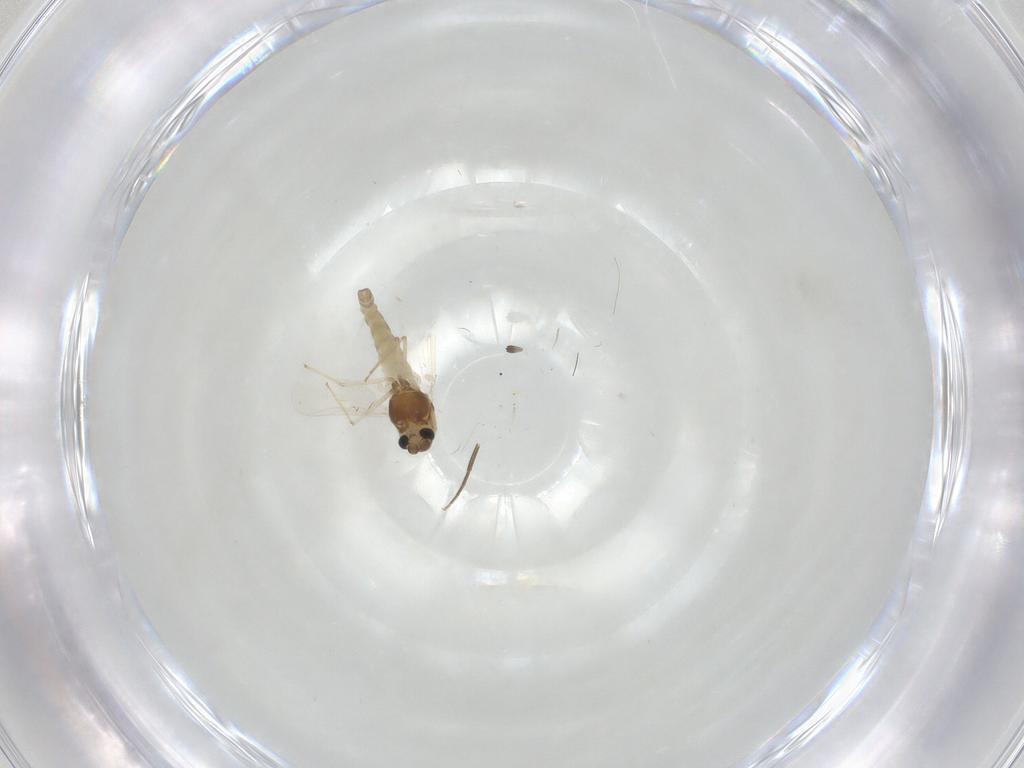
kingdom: Animalia
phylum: Arthropoda
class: Insecta
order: Diptera
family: Chironomidae
